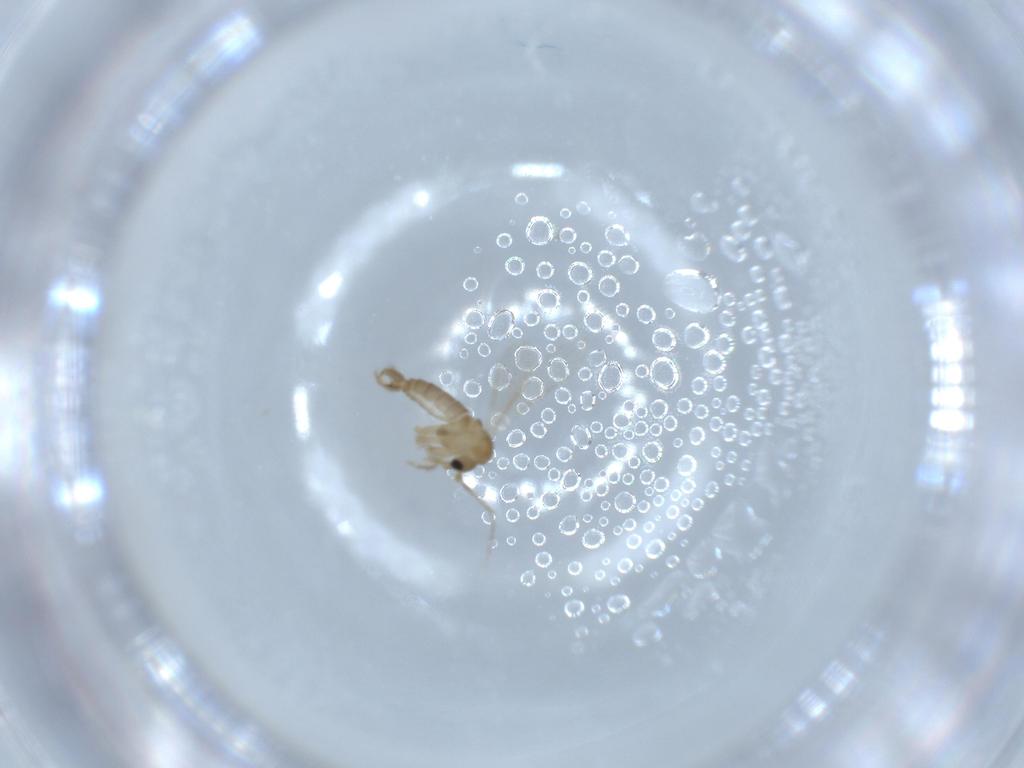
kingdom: Animalia
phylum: Arthropoda
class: Insecta
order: Diptera
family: Psychodidae
